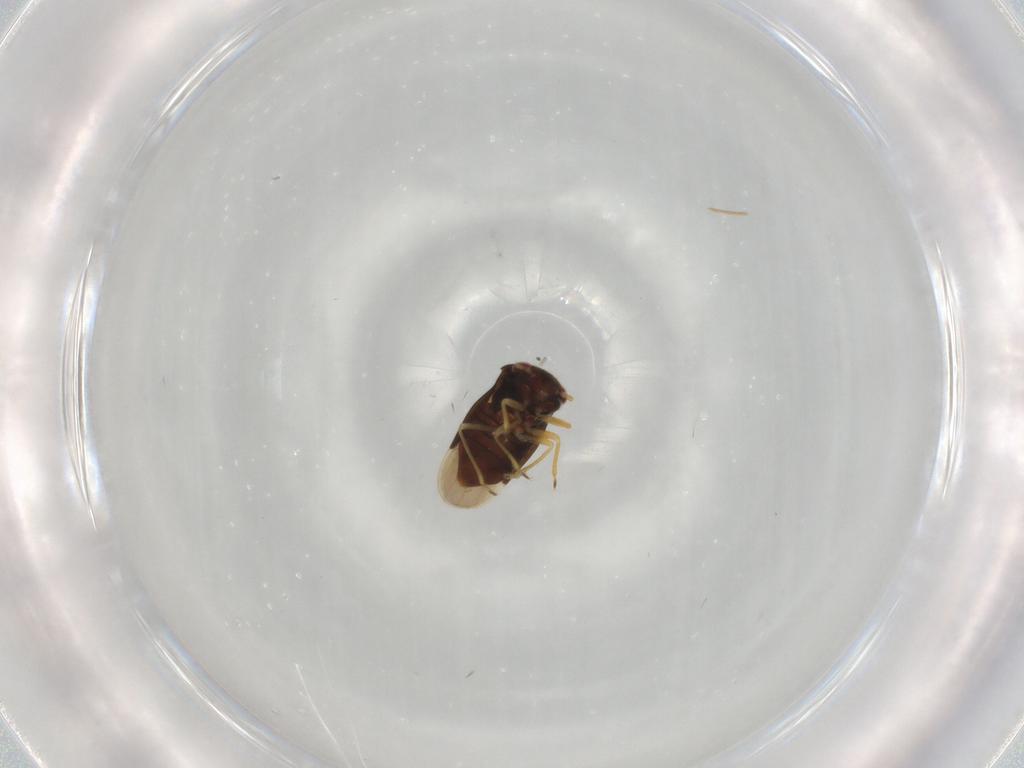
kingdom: Animalia
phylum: Arthropoda
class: Insecta
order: Hemiptera
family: Schizopteridae
